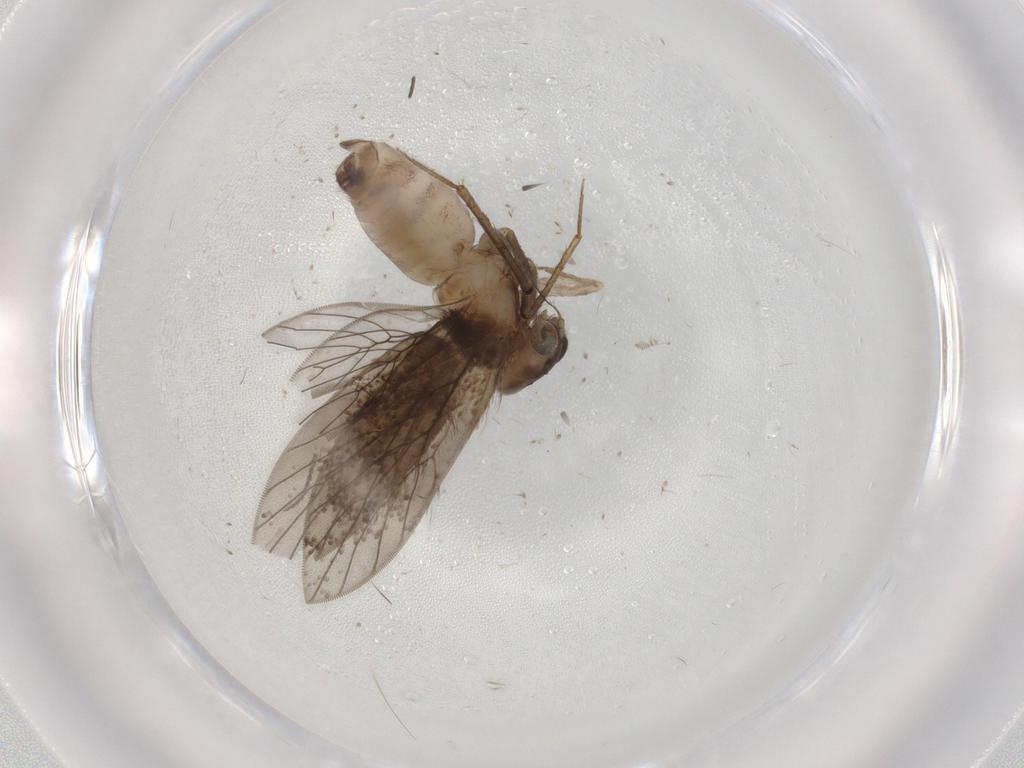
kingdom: Animalia
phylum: Arthropoda
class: Insecta
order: Psocodea
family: Lepidopsocidae
